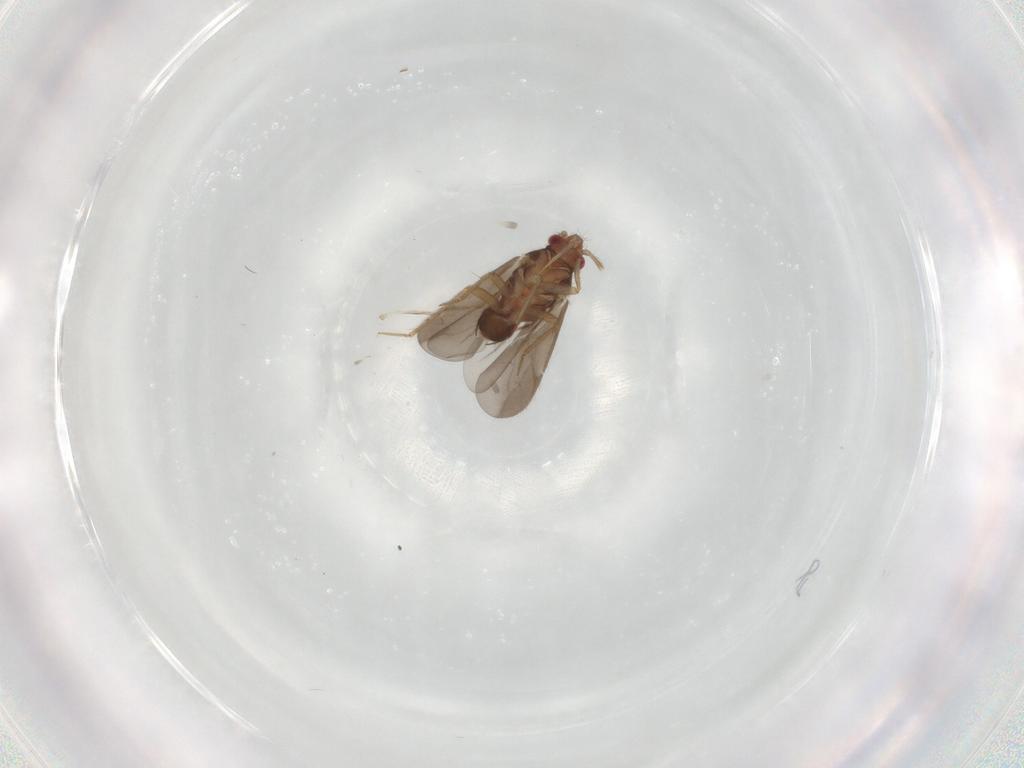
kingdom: Animalia
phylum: Arthropoda
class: Insecta
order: Hemiptera
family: Ceratocombidae
